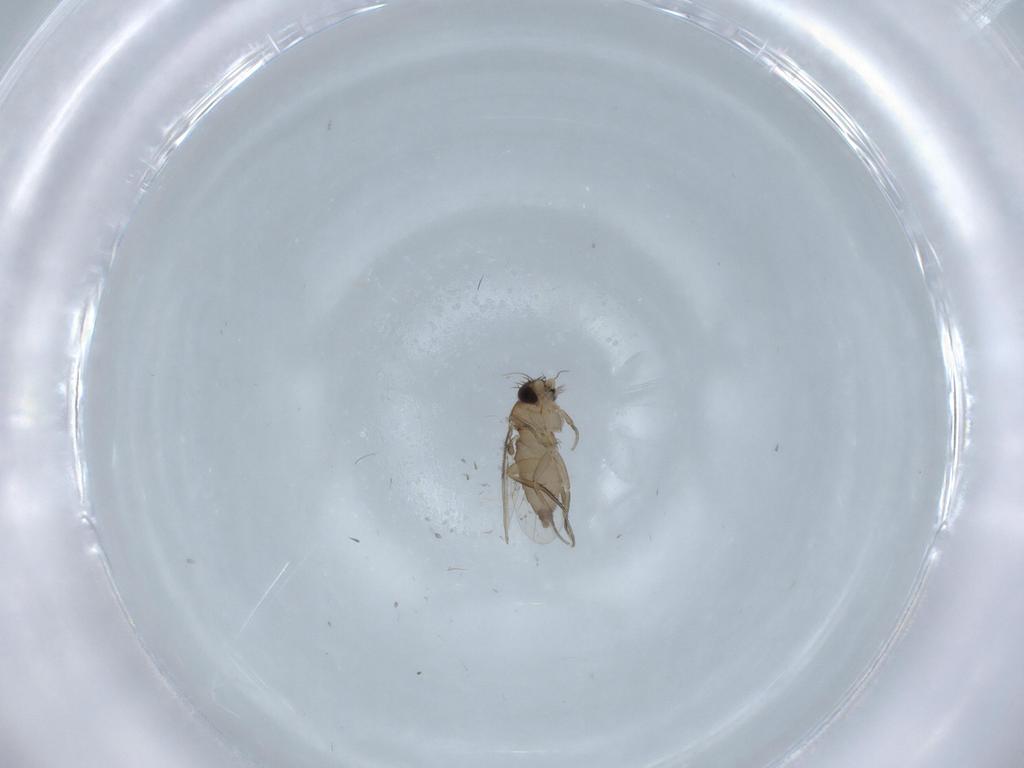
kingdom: Animalia
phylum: Arthropoda
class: Insecta
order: Diptera
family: Phoridae
